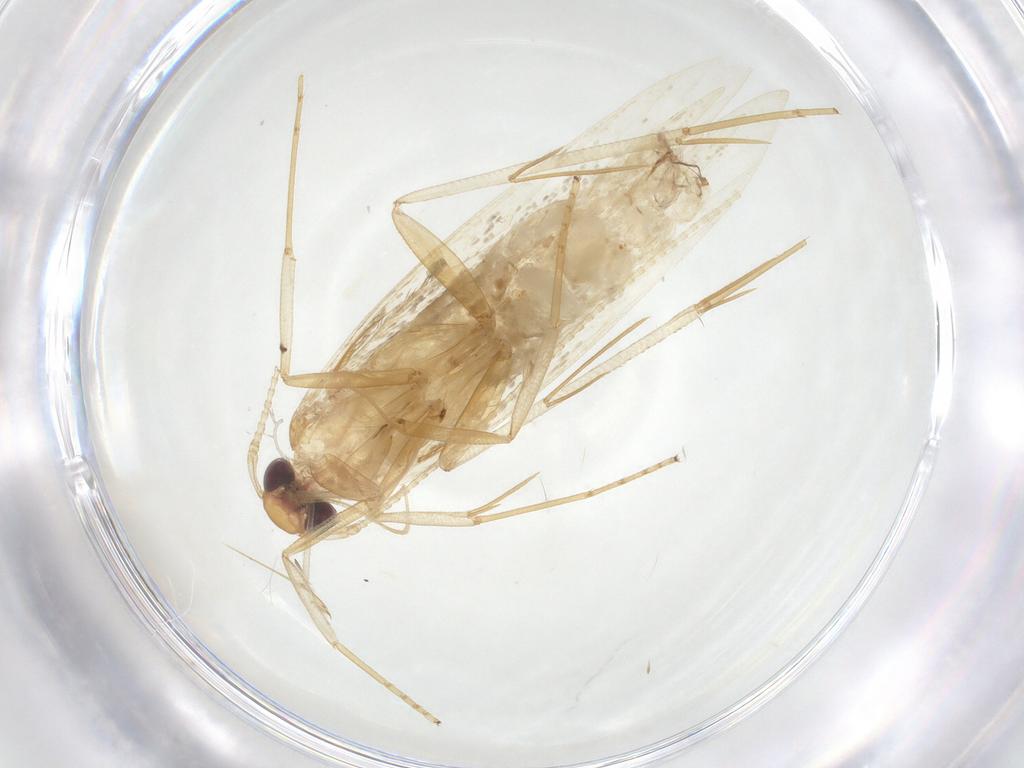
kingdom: Animalia
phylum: Arthropoda
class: Insecta
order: Lepidoptera
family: Pterolonchidae
